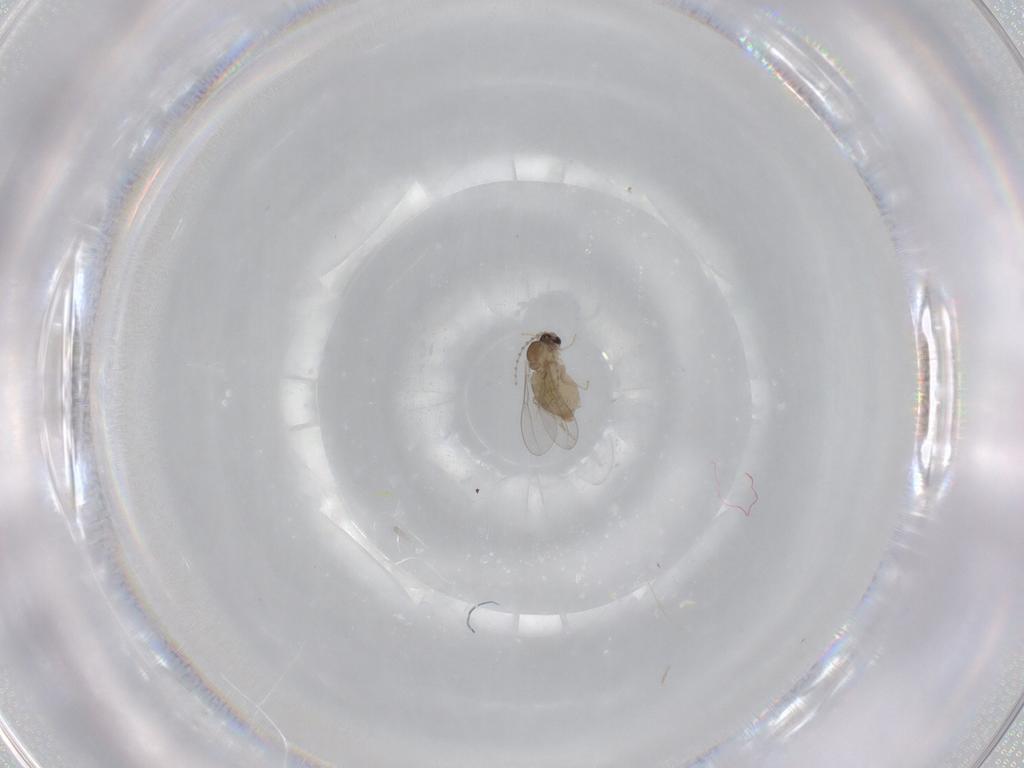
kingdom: Animalia
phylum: Arthropoda
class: Insecta
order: Diptera
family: Cecidomyiidae
